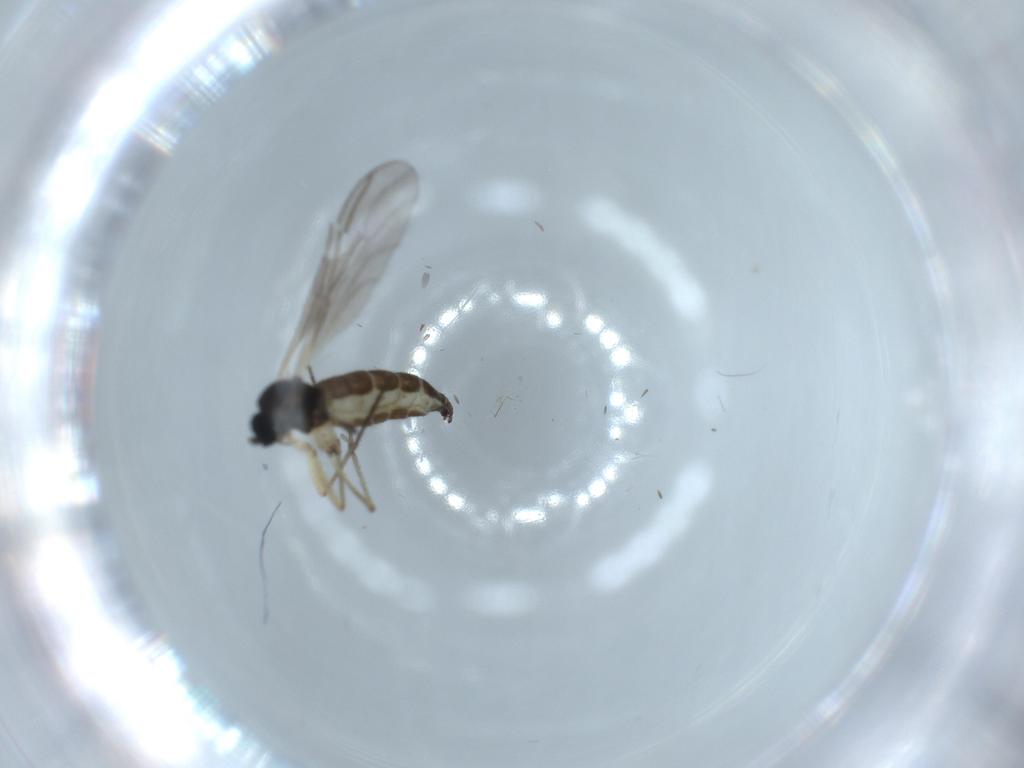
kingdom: Animalia
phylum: Arthropoda
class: Insecta
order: Diptera
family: Sciaridae
